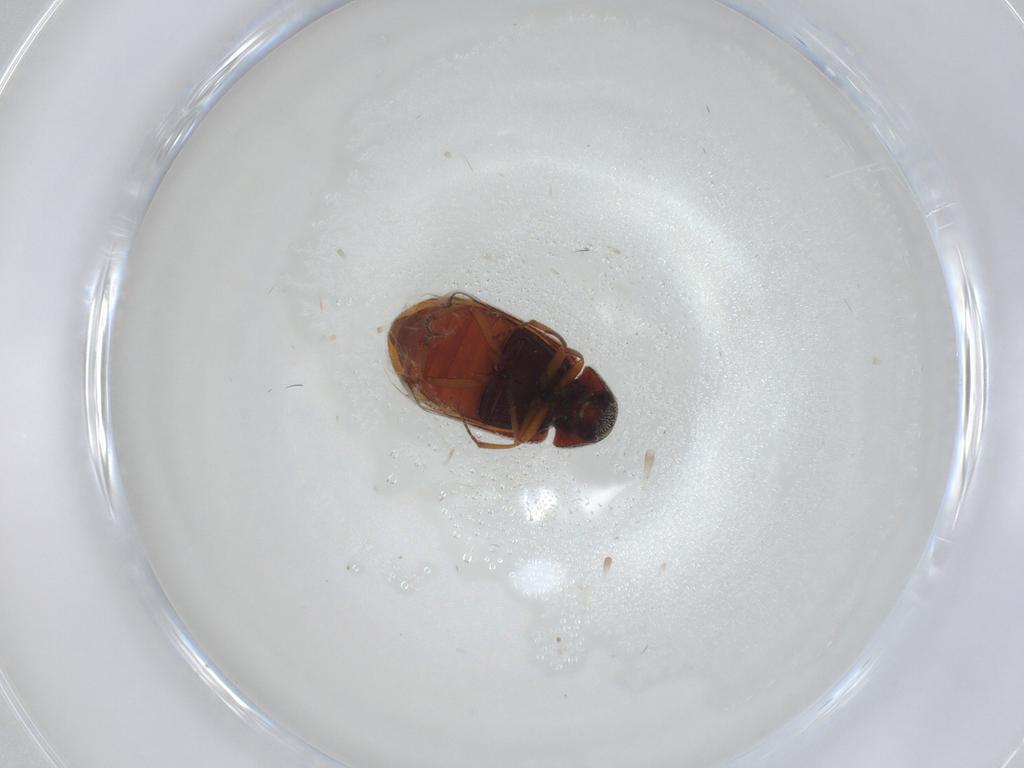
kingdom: Animalia
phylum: Arthropoda
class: Insecta
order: Coleoptera
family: Rhadalidae
